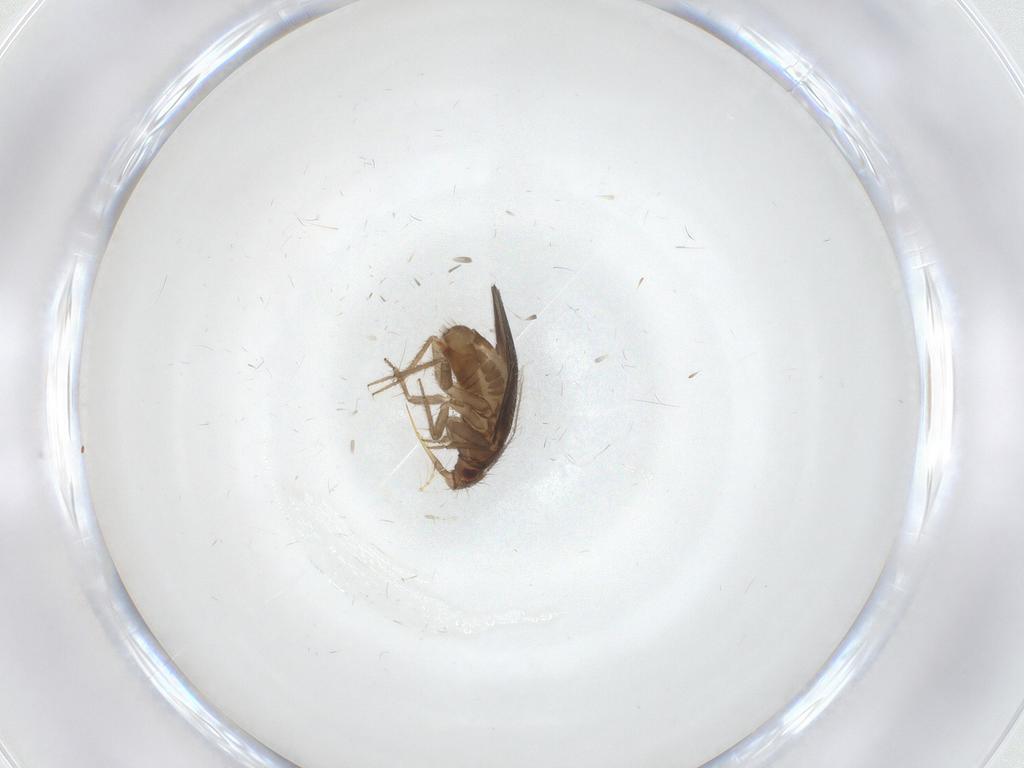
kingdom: Animalia
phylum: Arthropoda
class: Insecta
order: Hemiptera
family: Ceratocombidae
